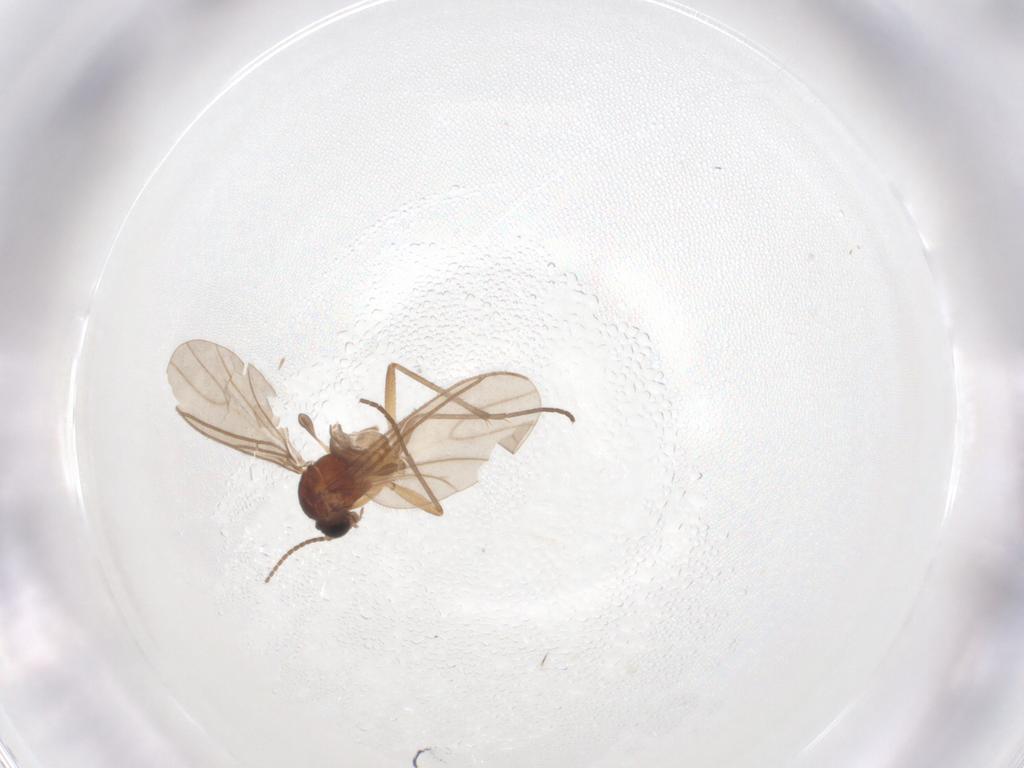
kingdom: Animalia
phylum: Arthropoda
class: Insecta
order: Diptera
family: Sciaridae
